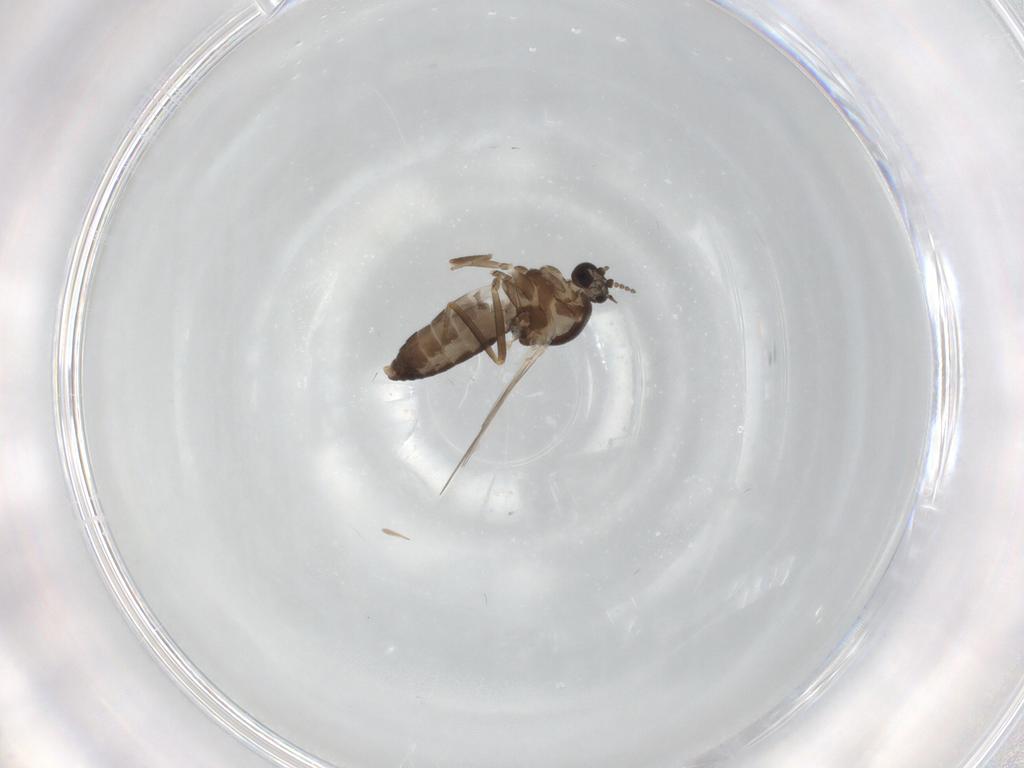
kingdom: Animalia
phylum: Arthropoda
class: Insecta
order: Diptera
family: Ceratopogonidae
